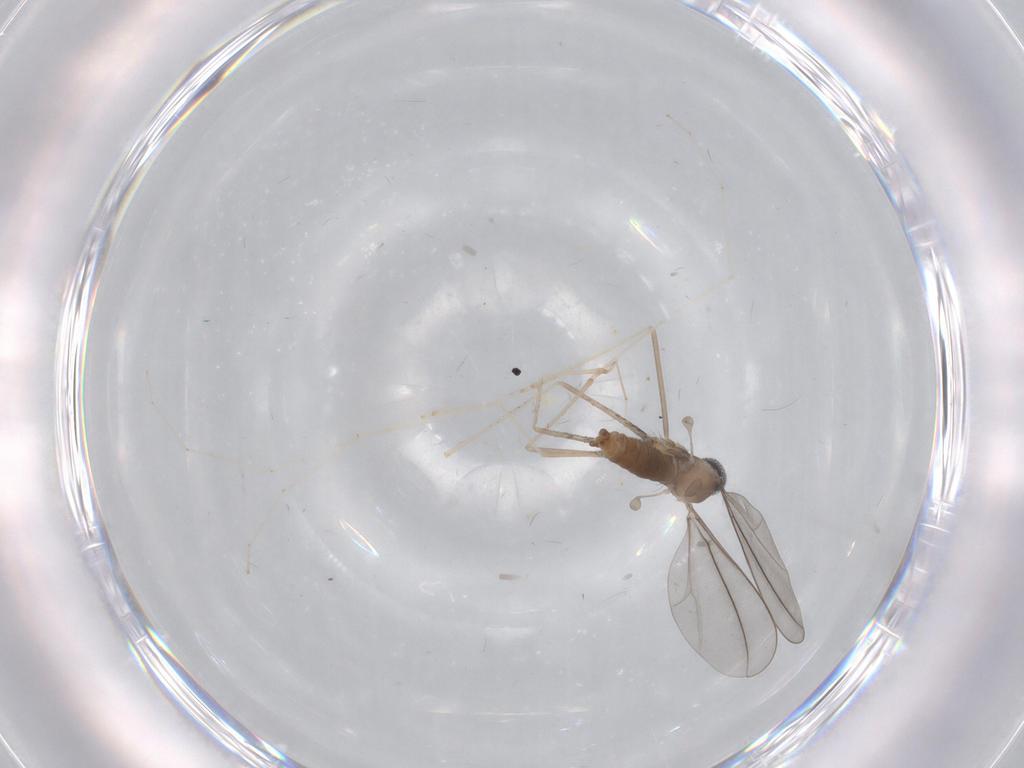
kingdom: Animalia
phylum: Arthropoda
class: Insecta
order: Diptera
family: Cecidomyiidae
